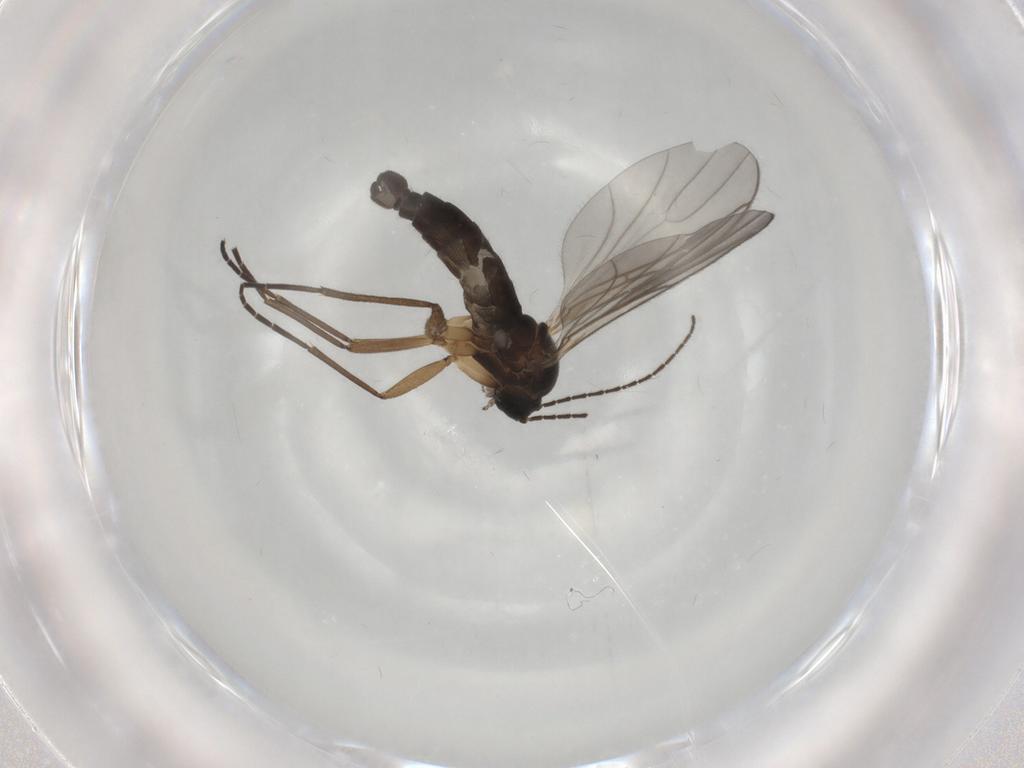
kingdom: Animalia
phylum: Arthropoda
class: Insecta
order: Diptera
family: Sciaridae
